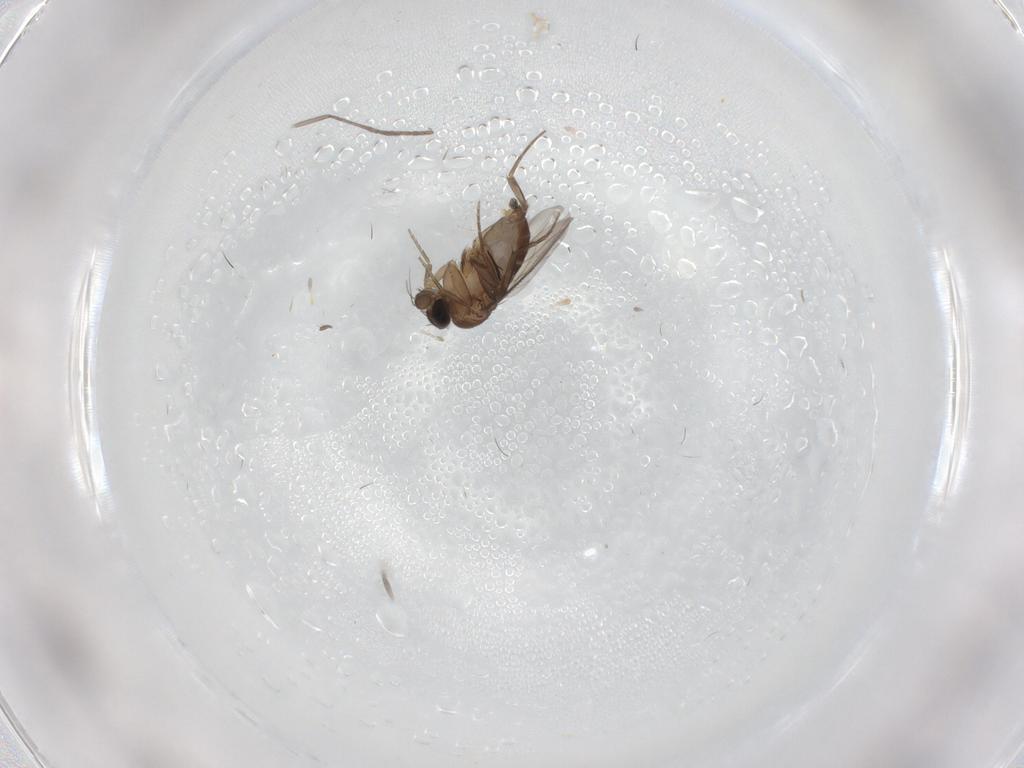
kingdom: Animalia
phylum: Arthropoda
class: Insecta
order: Diptera
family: Phoridae
